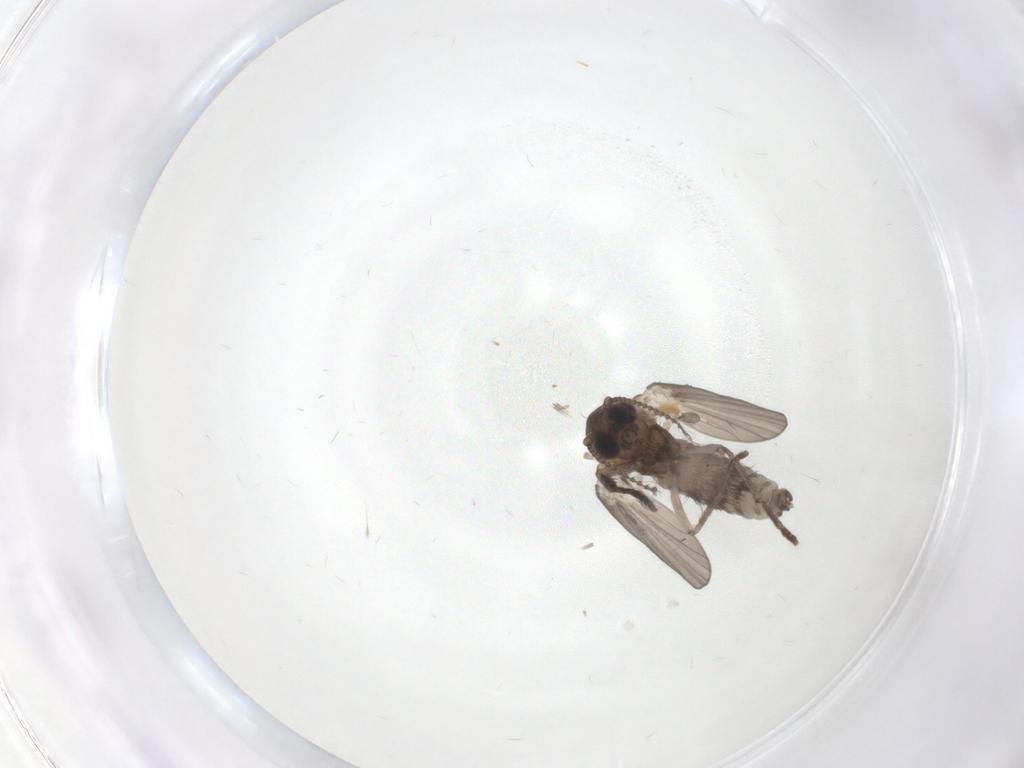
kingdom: Animalia
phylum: Arthropoda
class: Insecta
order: Diptera
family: Psychodidae
